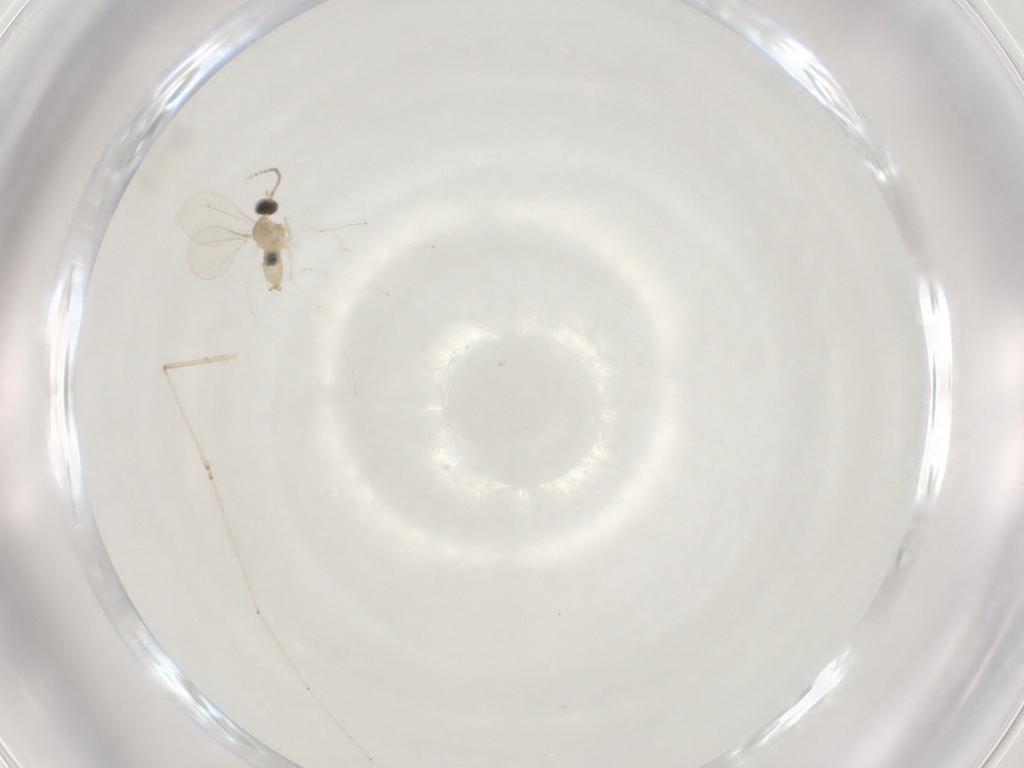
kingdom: Animalia
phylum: Arthropoda
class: Insecta
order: Diptera
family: Cecidomyiidae
